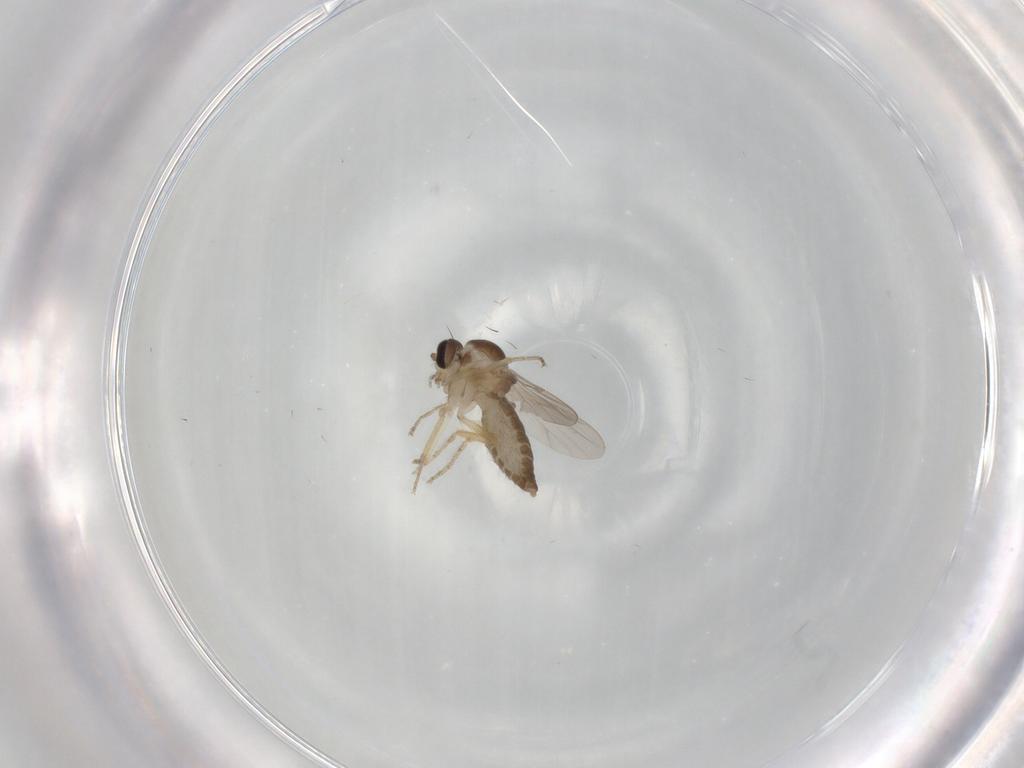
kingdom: Animalia
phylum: Arthropoda
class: Insecta
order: Diptera
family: Ceratopogonidae
